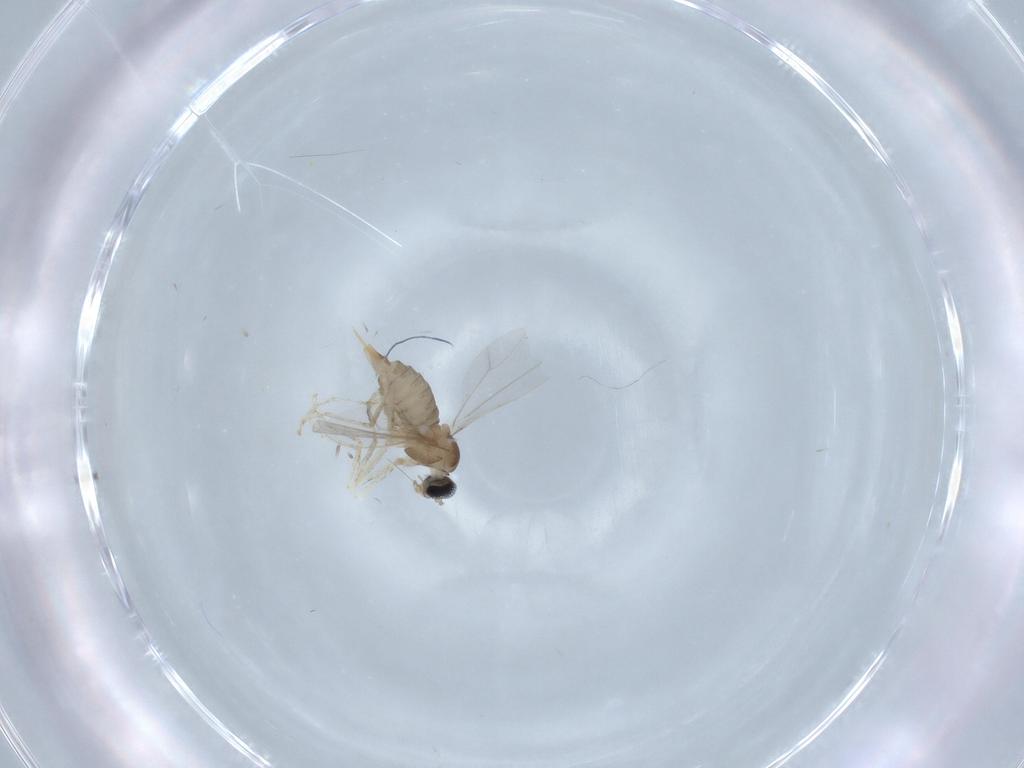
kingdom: Animalia
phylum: Arthropoda
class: Insecta
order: Diptera
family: Cecidomyiidae
